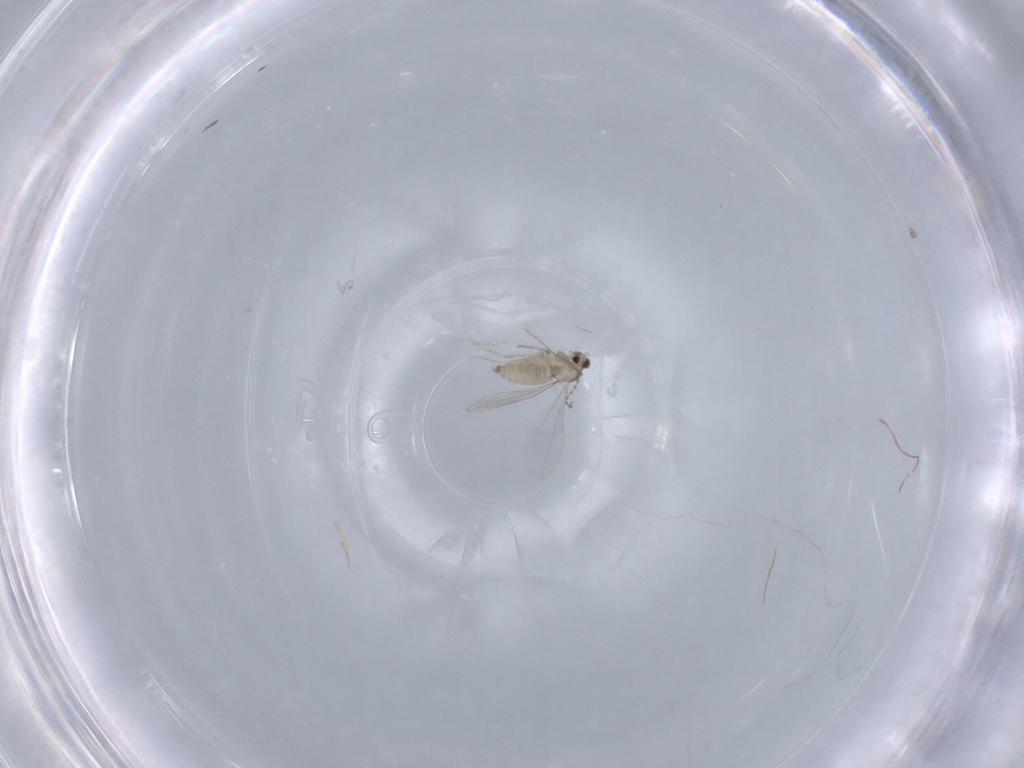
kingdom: Animalia
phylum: Arthropoda
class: Insecta
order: Diptera
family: Cecidomyiidae
